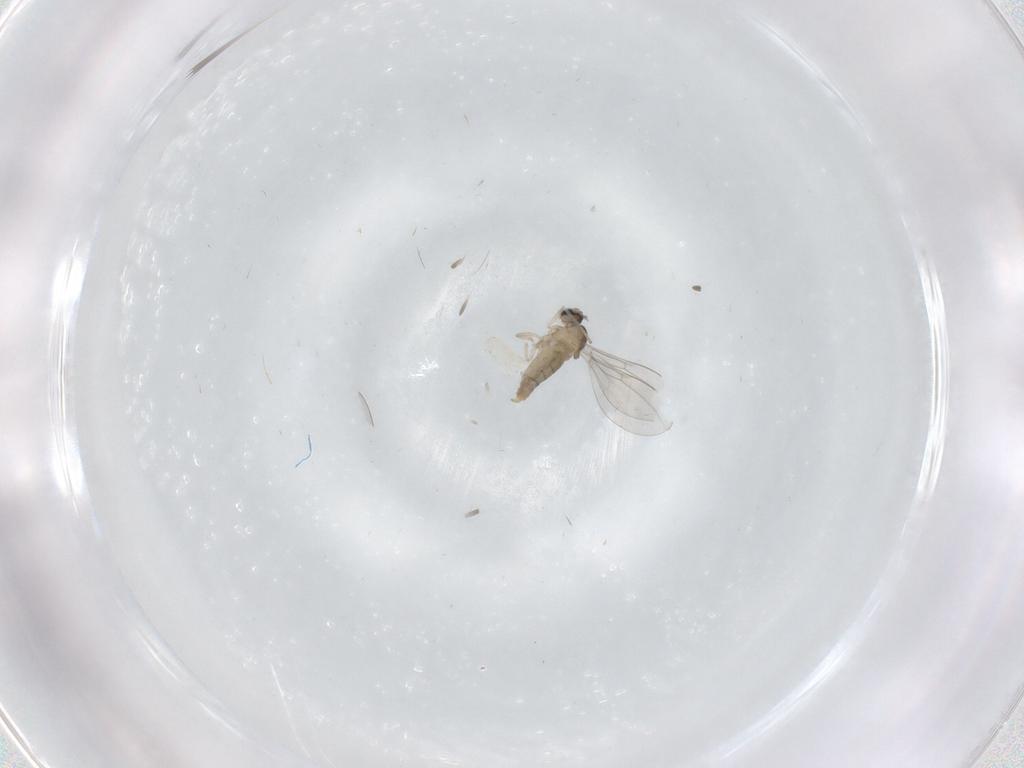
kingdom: Animalia
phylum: Arthropoda
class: Insecta
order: Diptera
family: Cecidomyiidae
